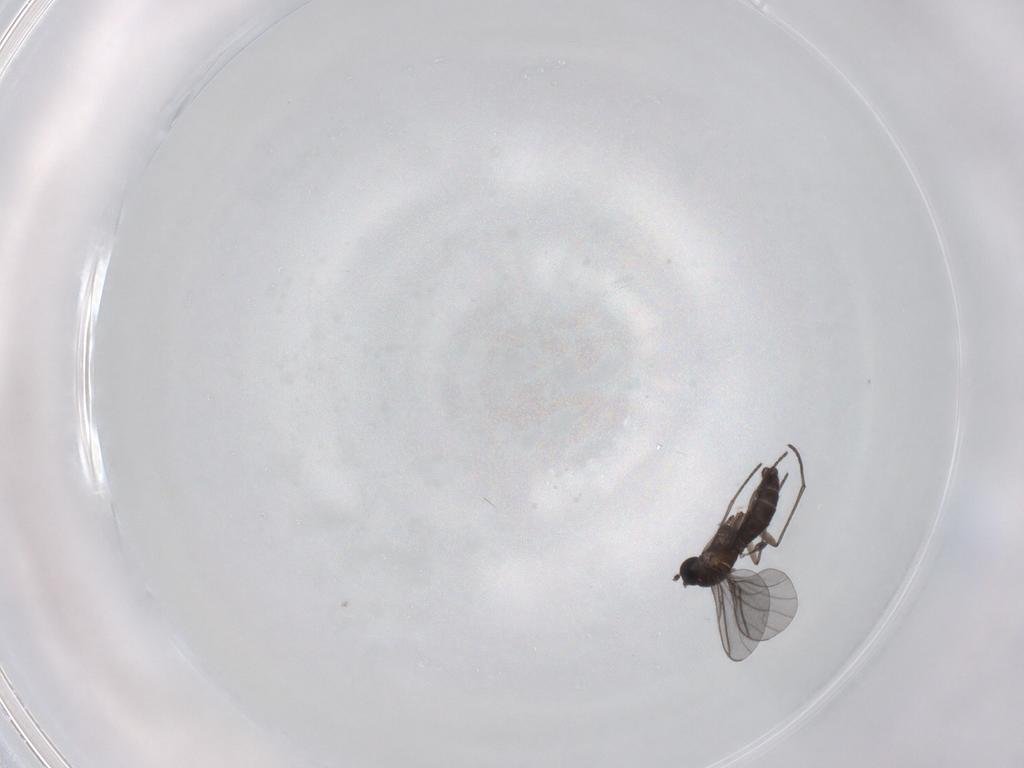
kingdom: Animalia
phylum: Arthropoda
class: Insecta
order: Diptera
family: Sciaridae
